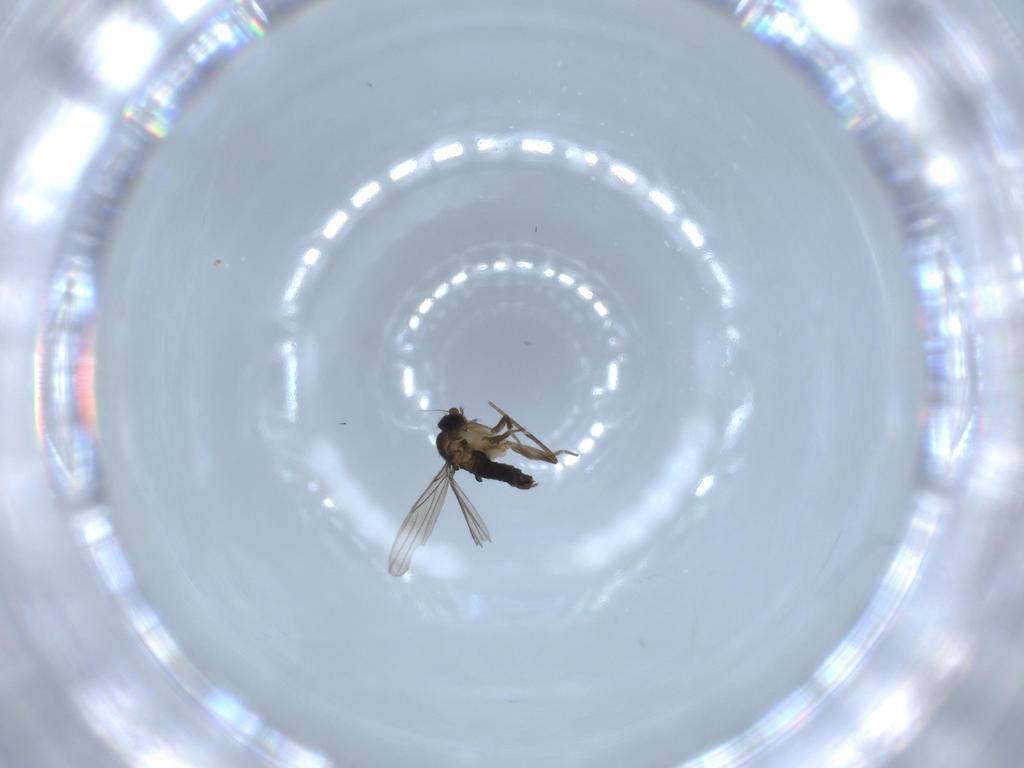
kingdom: Animalia
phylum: Arthropoda
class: Insecta
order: Diptera
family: Phoridae
